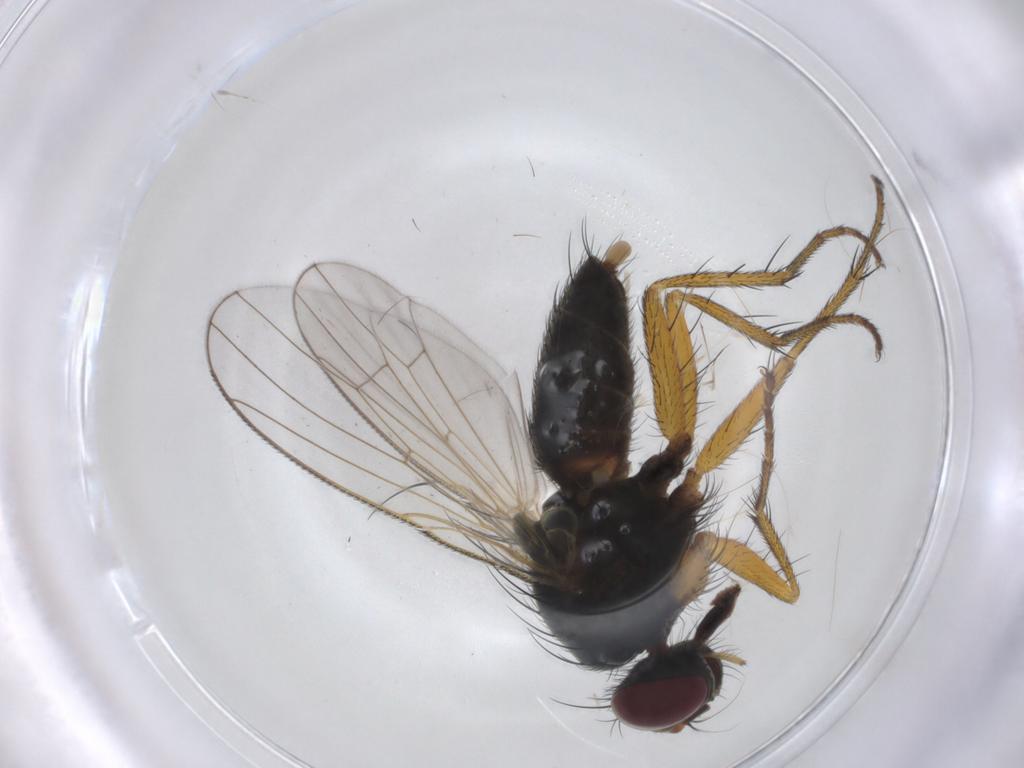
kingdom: Animalia
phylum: Arthropoda
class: Insecta
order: Diptera
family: Chironomidae
